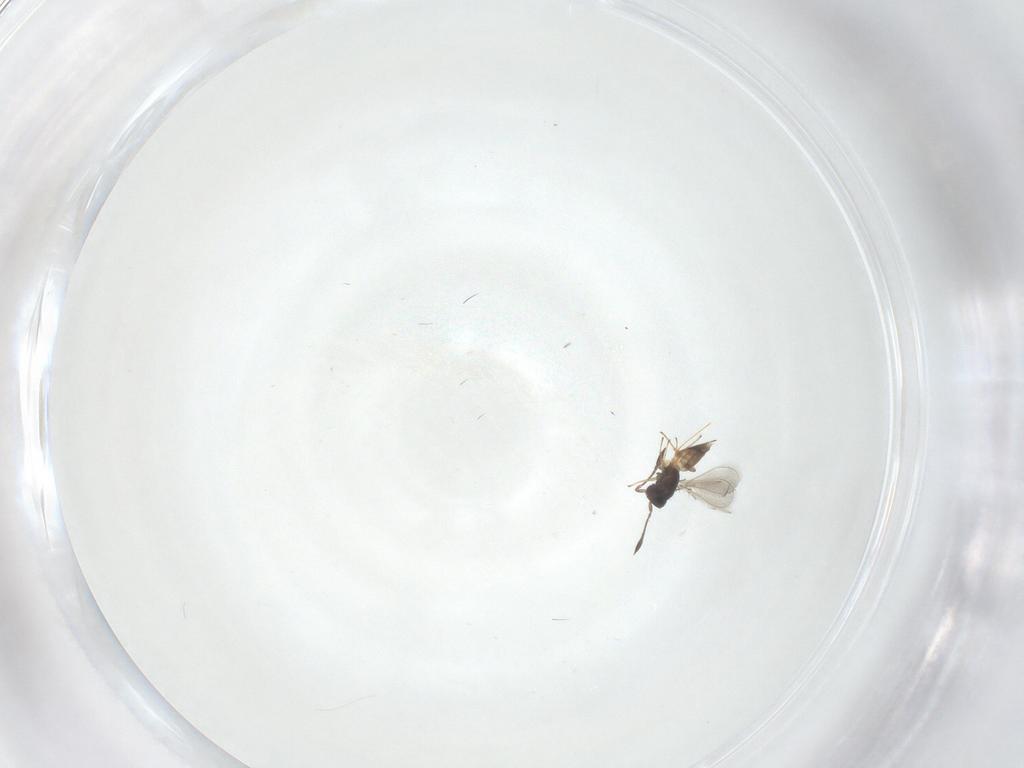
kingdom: Animalia
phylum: Arthropoda
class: Insecta
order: Hymenoptera
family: Mymaridae
